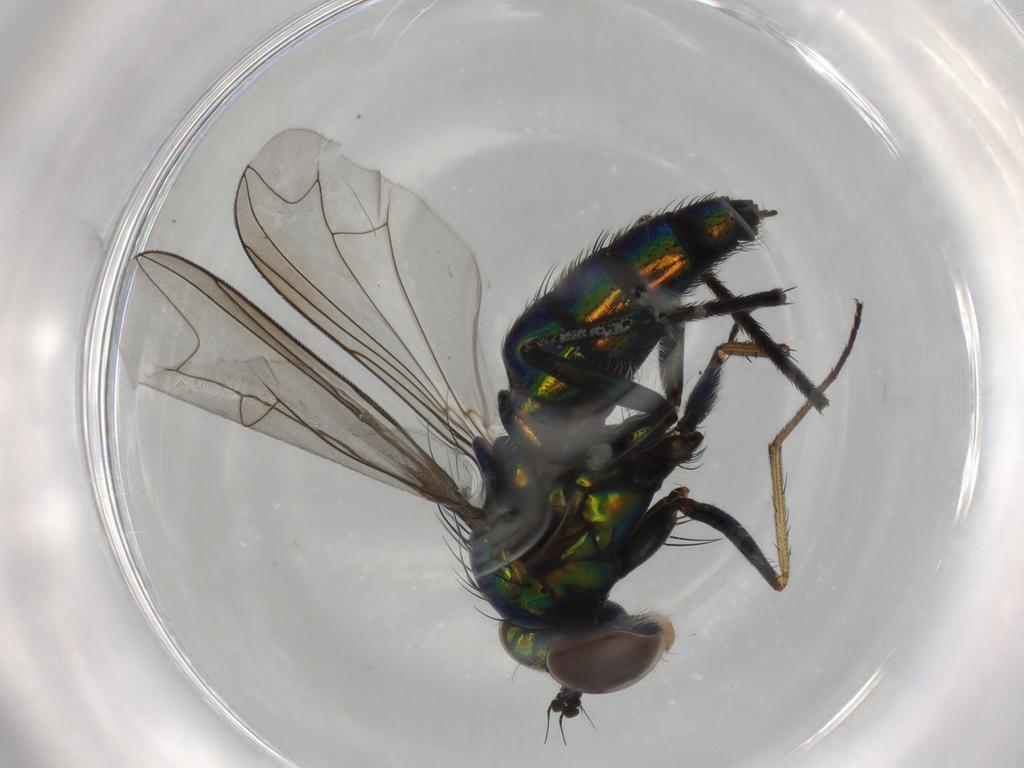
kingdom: Animalia
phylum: Arthropoda
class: Insecta
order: Diptera
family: Dolichopodidae
